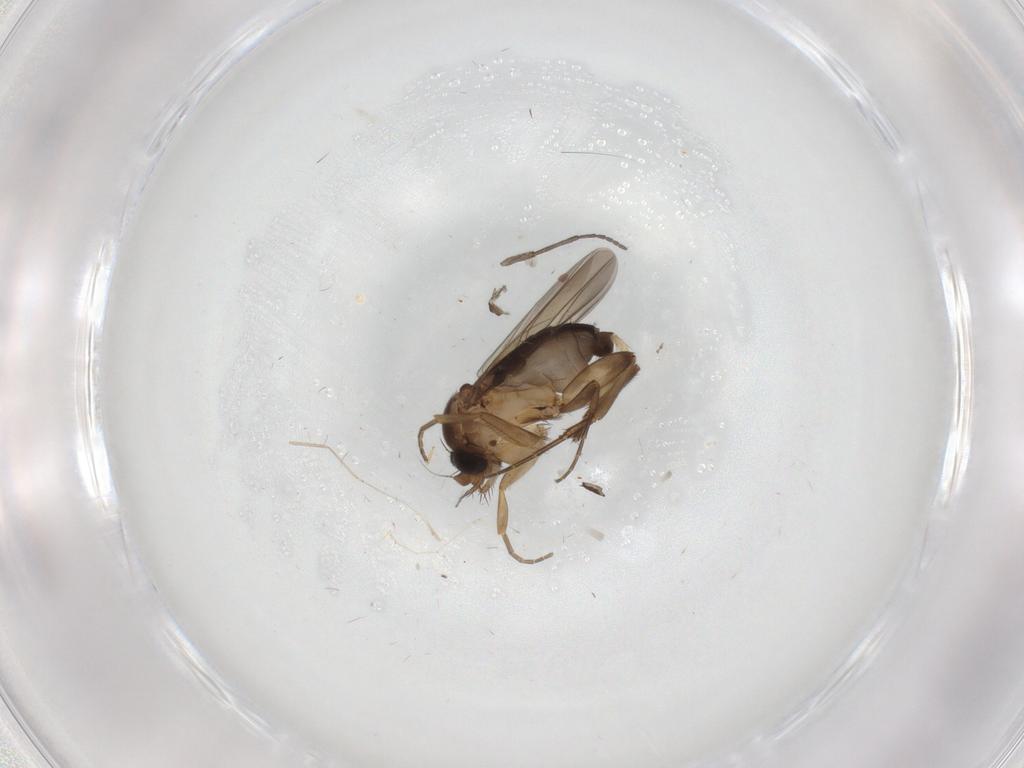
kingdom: Animalia
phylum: Arthropoda
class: Insecta
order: Diptera
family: Phoridae
